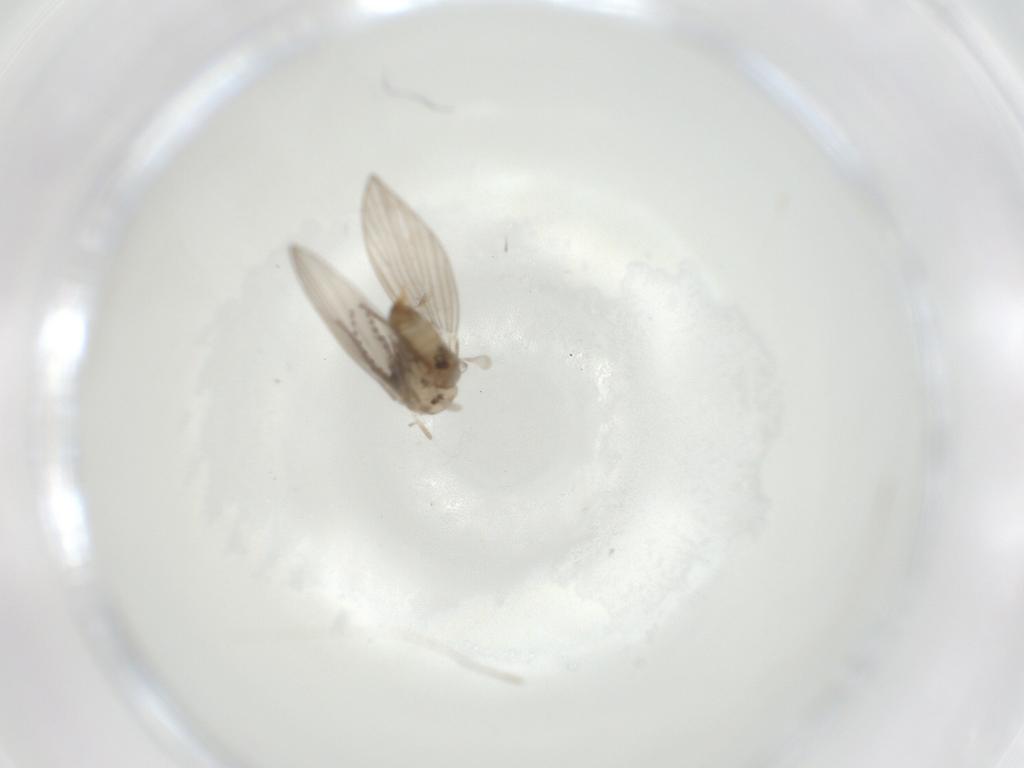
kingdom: Animalia
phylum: Arthropoda
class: Insecta
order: Diptera
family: Psychodidae
